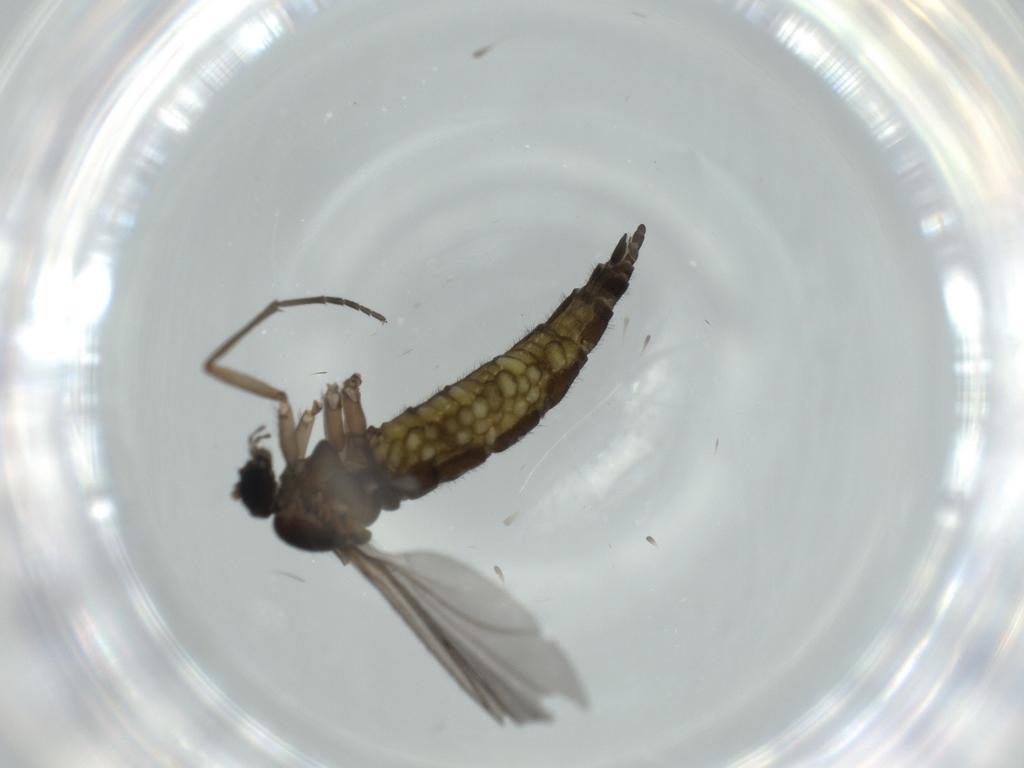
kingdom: Animalia
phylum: Arthropoda
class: Insecta
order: Diptera
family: Sciaridae
